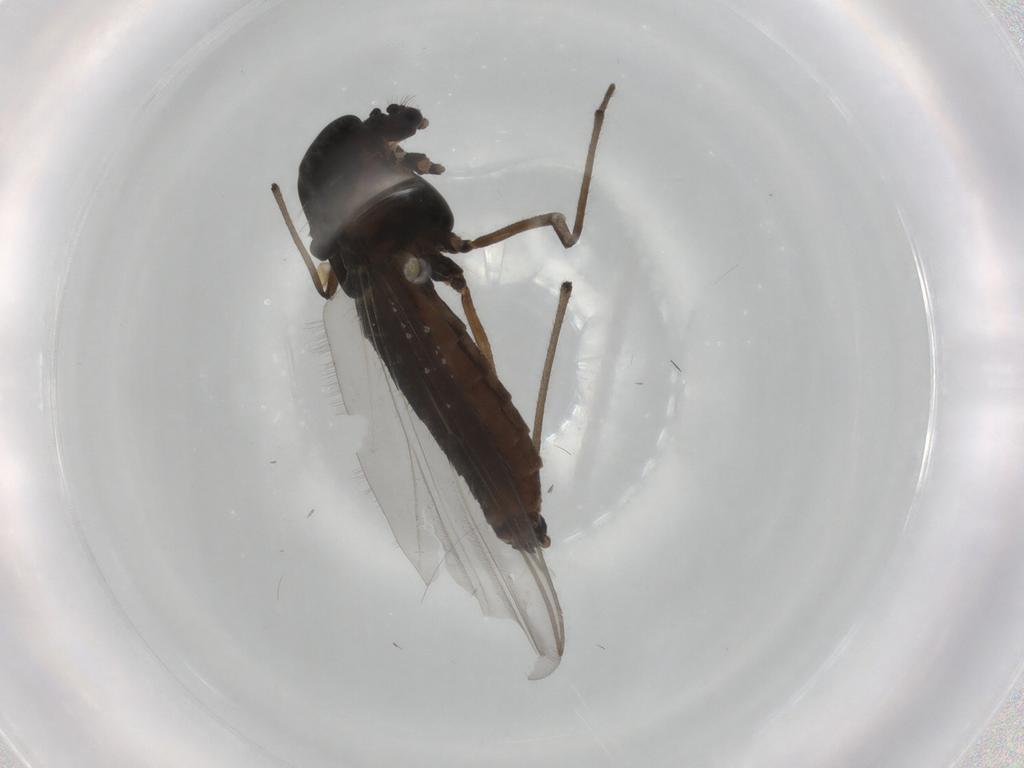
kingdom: Animalia
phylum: Arthropoda
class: Insecta
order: Diptera
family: Chironomidae
